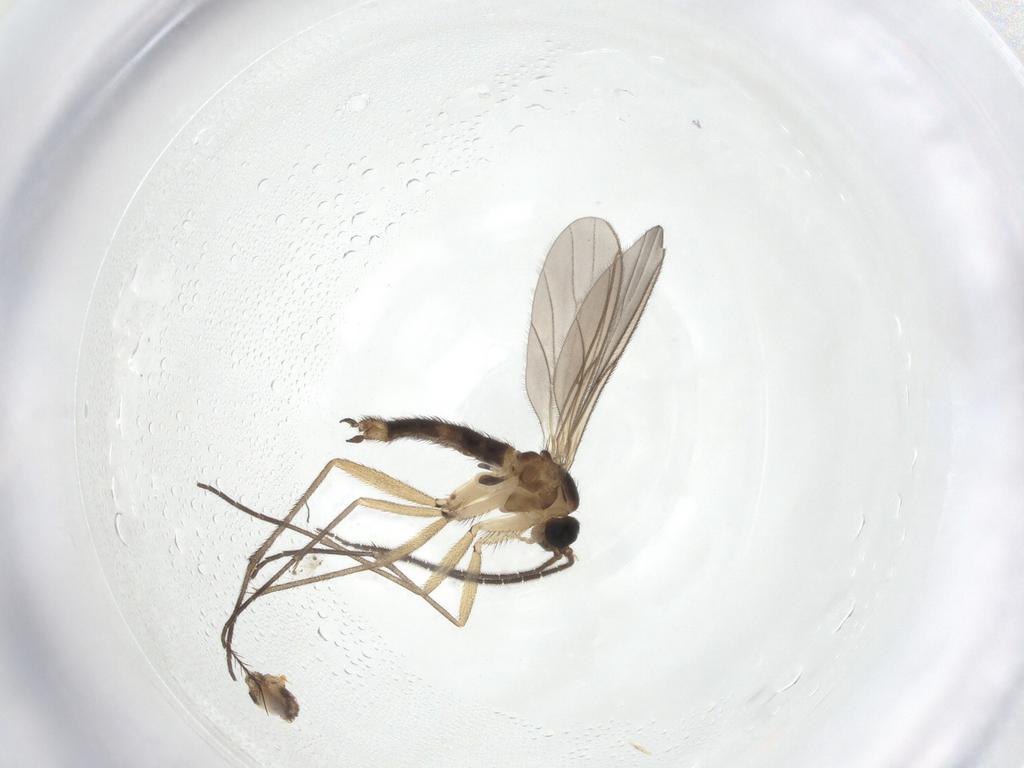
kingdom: Animalia
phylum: Arthropoda
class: Insecta
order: Diptera
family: Sciaridae
